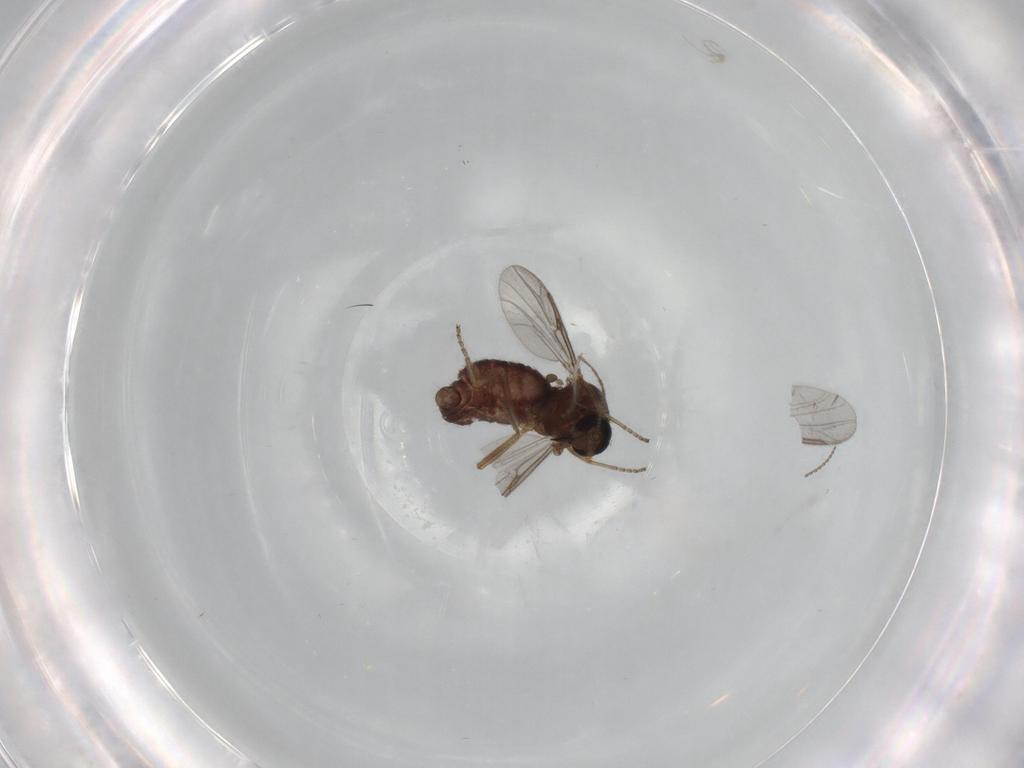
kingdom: Animalia
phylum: Arthropoda
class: Insecta
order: Diptera
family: Ceratopogonidae
